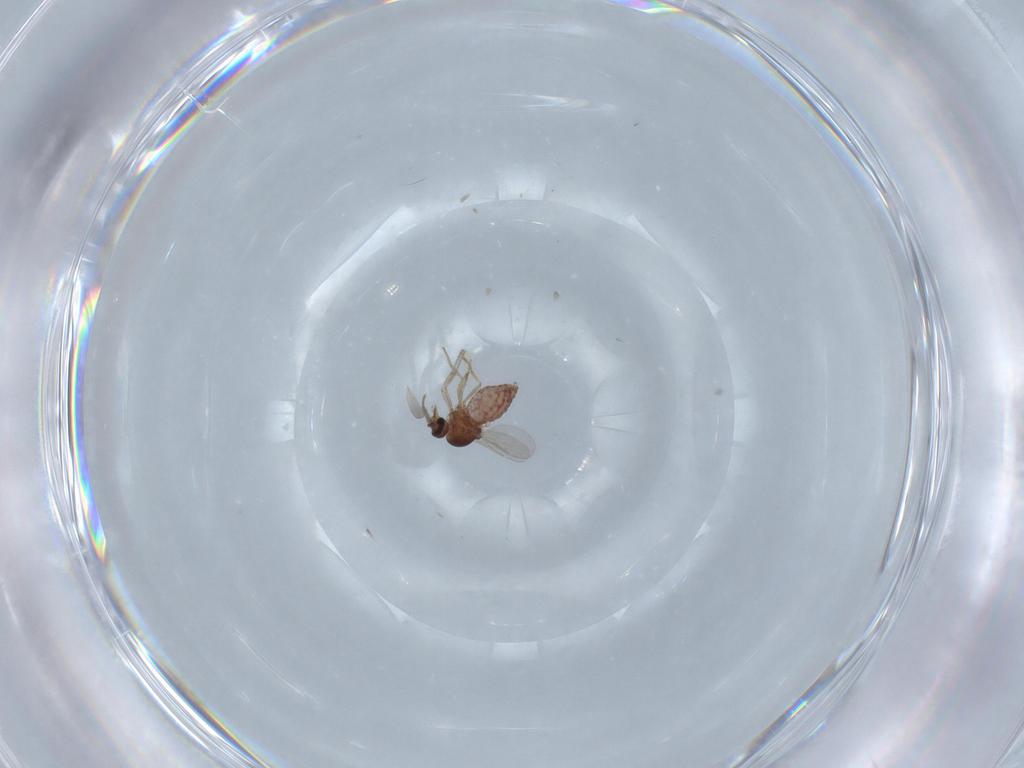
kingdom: Animalia
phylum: Arthropoda
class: Insecta
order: Diptera
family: Ceratopogonidae
